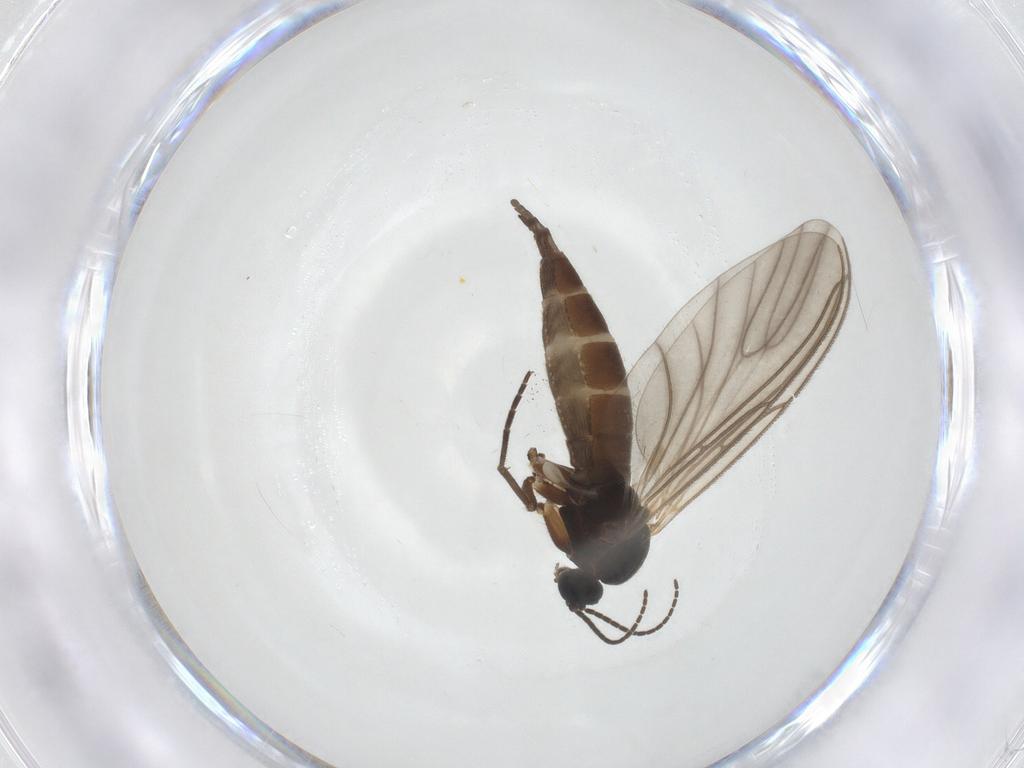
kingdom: Animalia
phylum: Arthropoda
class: Insecta
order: Diptera
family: Sciaridae
